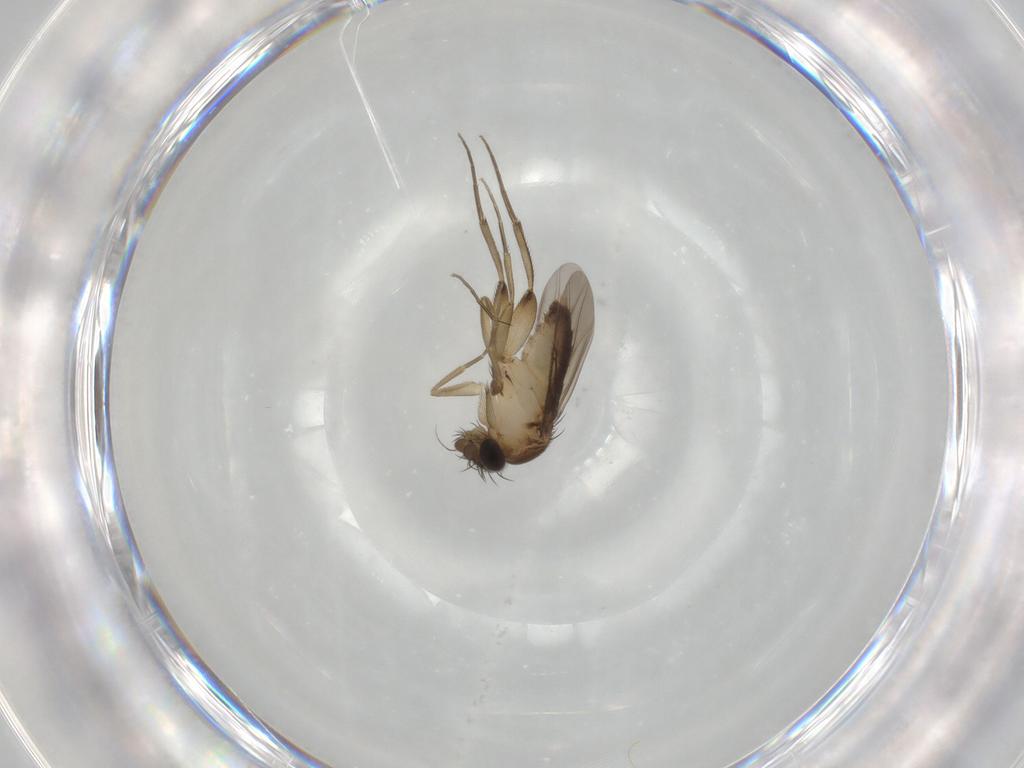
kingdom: Animalia
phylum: Arthropoda
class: Insecta
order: Diptera
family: Phoridae
